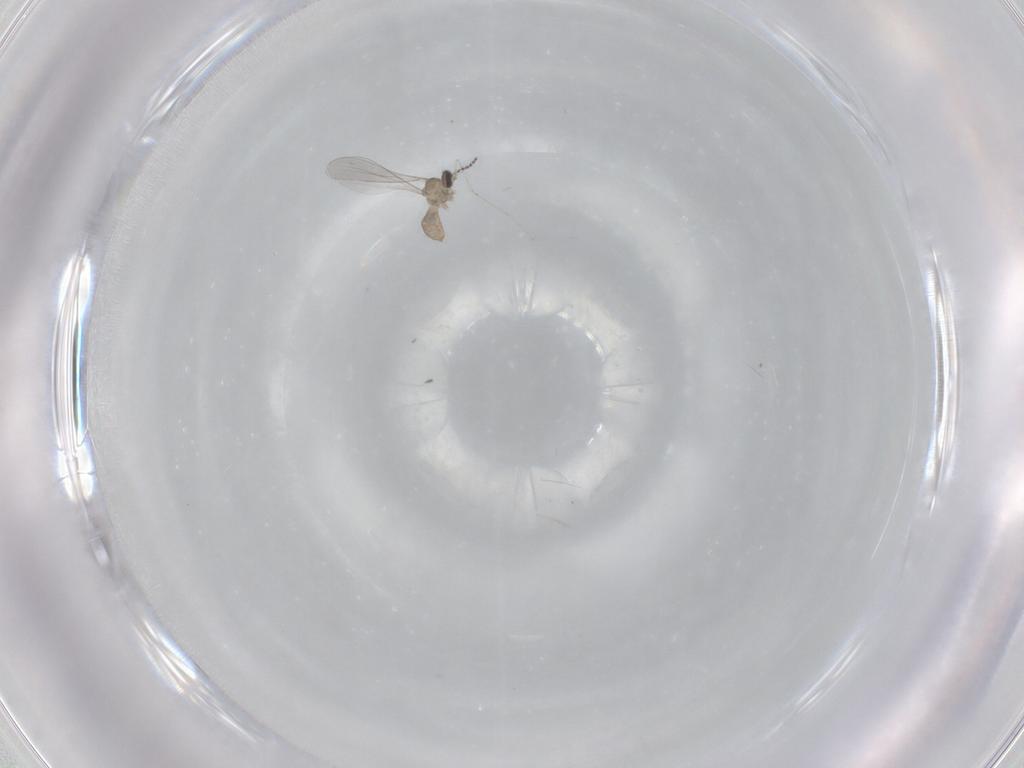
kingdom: Animalia
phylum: Arthropoda
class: Insecta
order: Diptera
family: Cecidomyiidae
